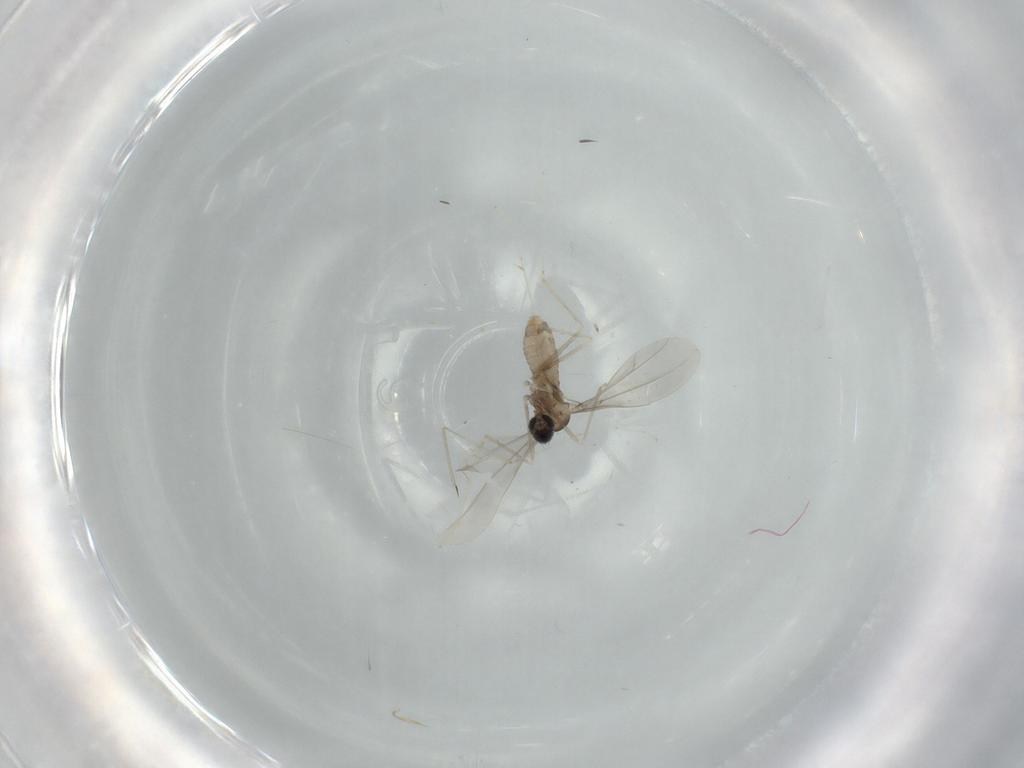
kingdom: Animalia
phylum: Arthropoda
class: Insecta
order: Diptera
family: Cecidomyiidae
